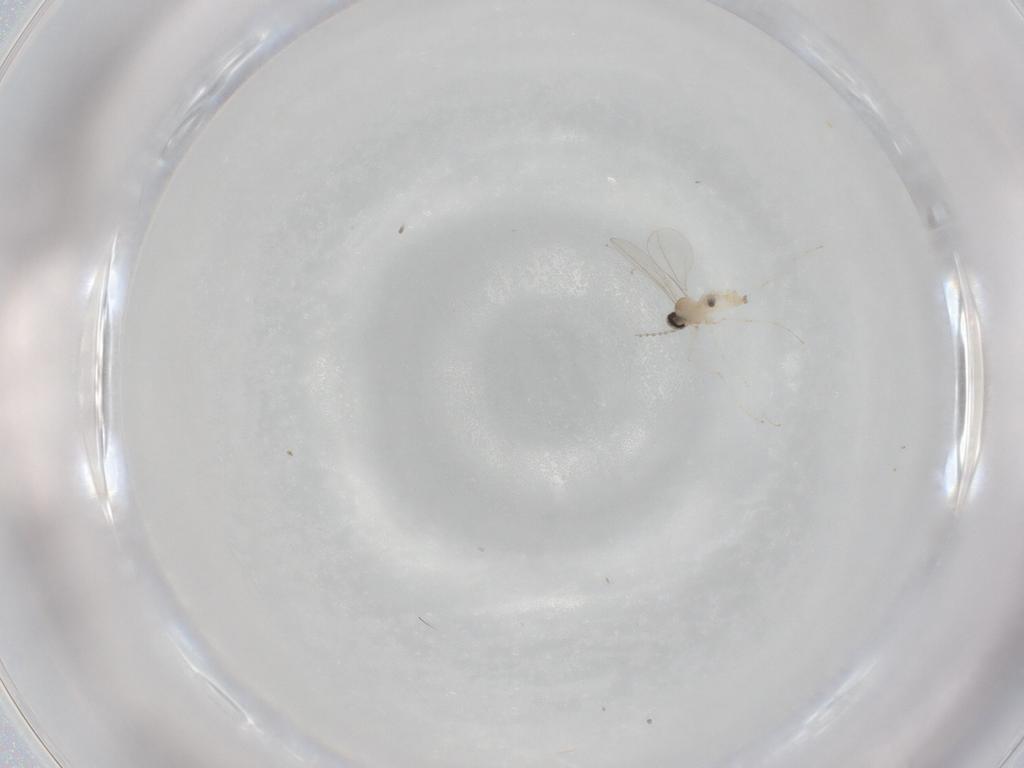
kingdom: Animalia
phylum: Arthropoda
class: Insecta
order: Diptera
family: Cecidomyiidae
